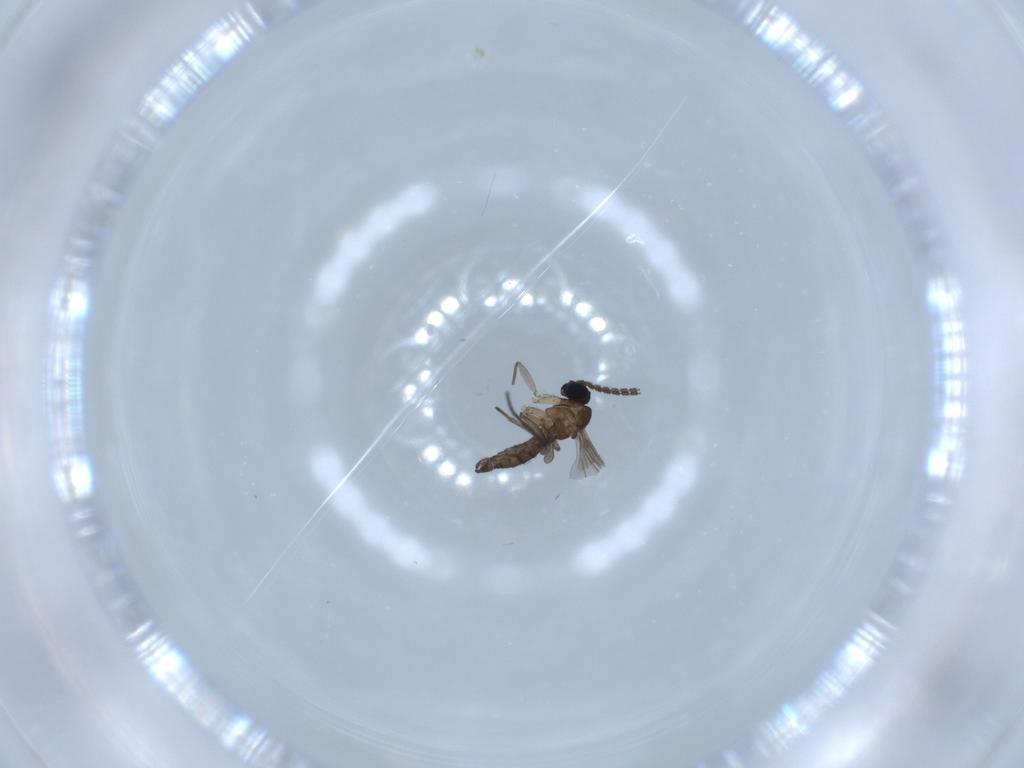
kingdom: Animalia
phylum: Arthropoda
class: Insecta
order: Diptera
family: Sciaridae
